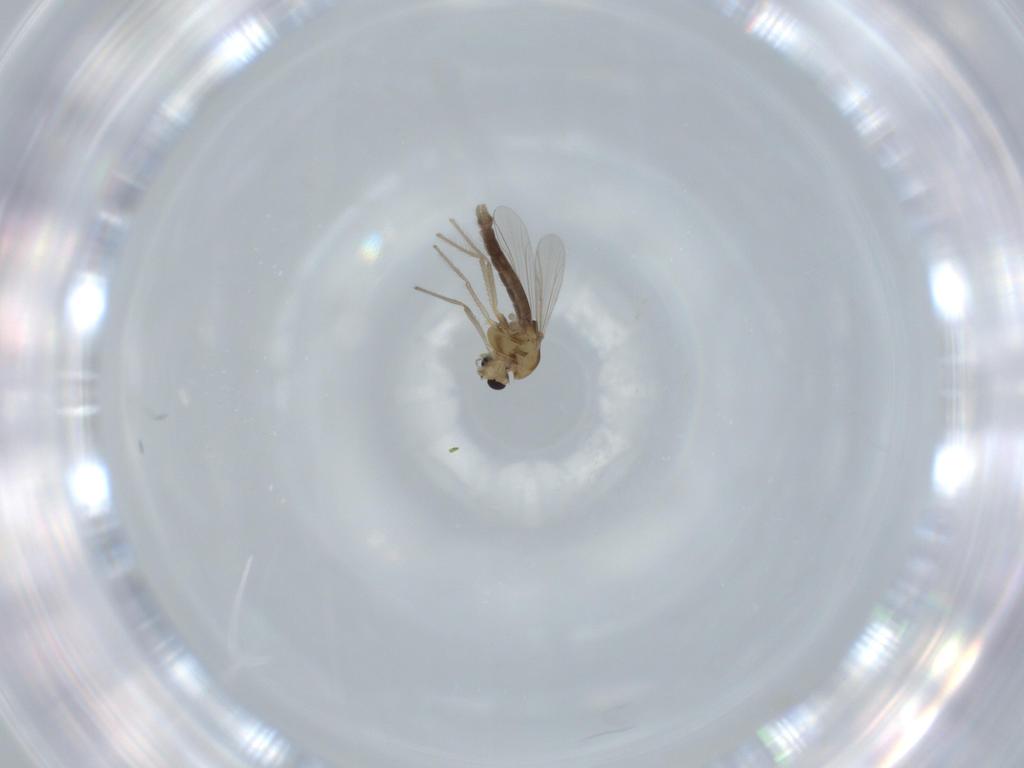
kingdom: Animalia
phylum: Arthropoda
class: Insecta
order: Diptera
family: Chironomidae
